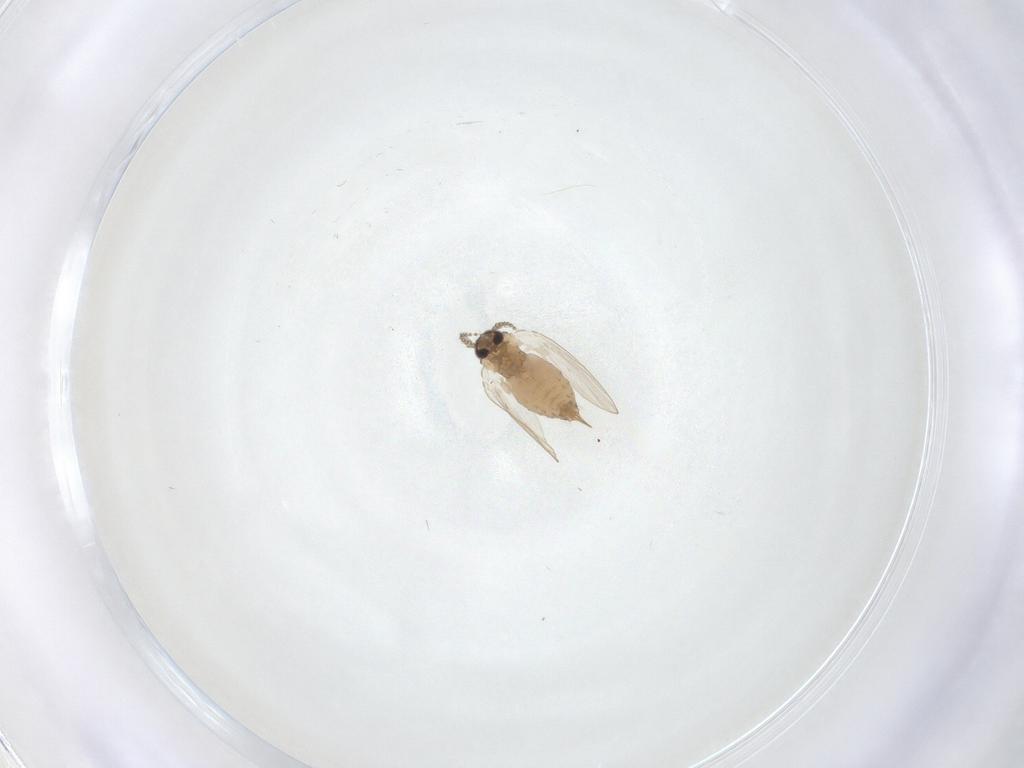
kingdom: Animalia
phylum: Arthropoda
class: Insecta
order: Diptera
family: Psychodidae
